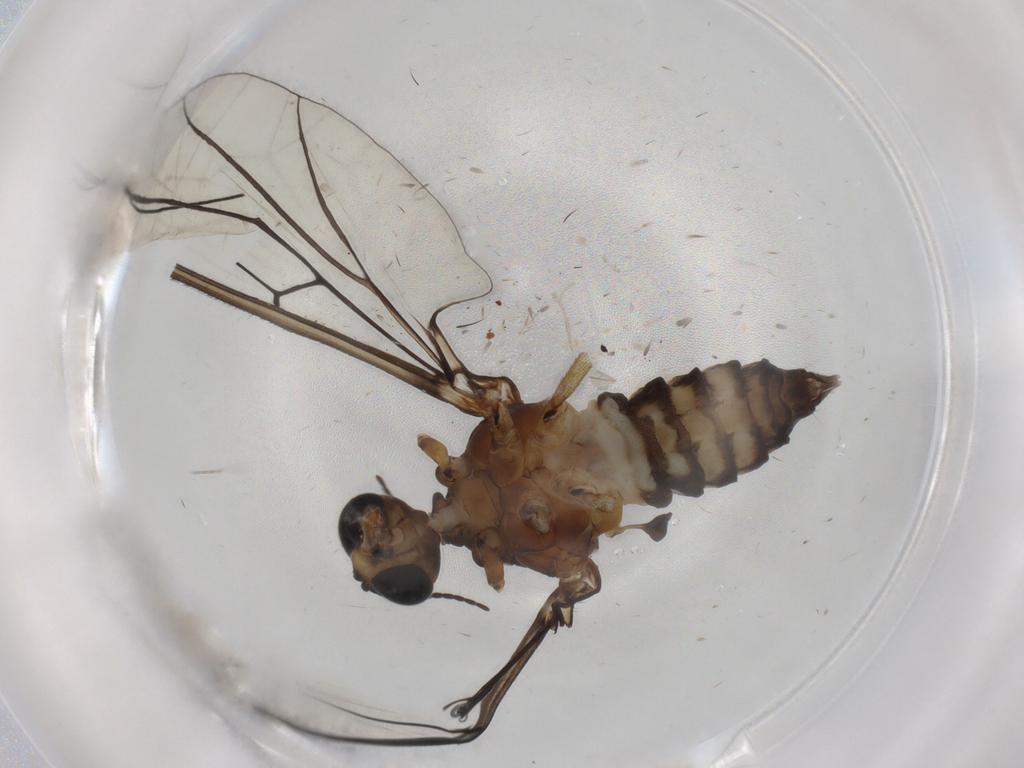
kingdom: Animalia
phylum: Arthropoda
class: Insecta
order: Diptera
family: Blephariceridae
